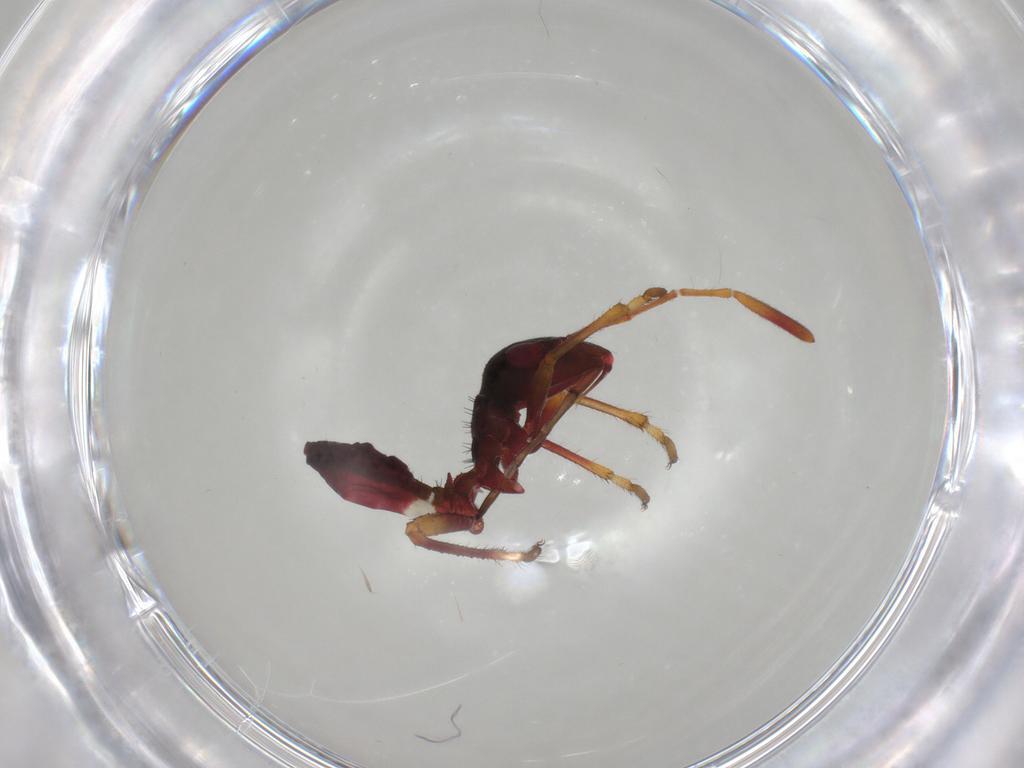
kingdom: Animalia
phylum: Arthropoda
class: Insecta
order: Hemiptera
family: Alydidae
